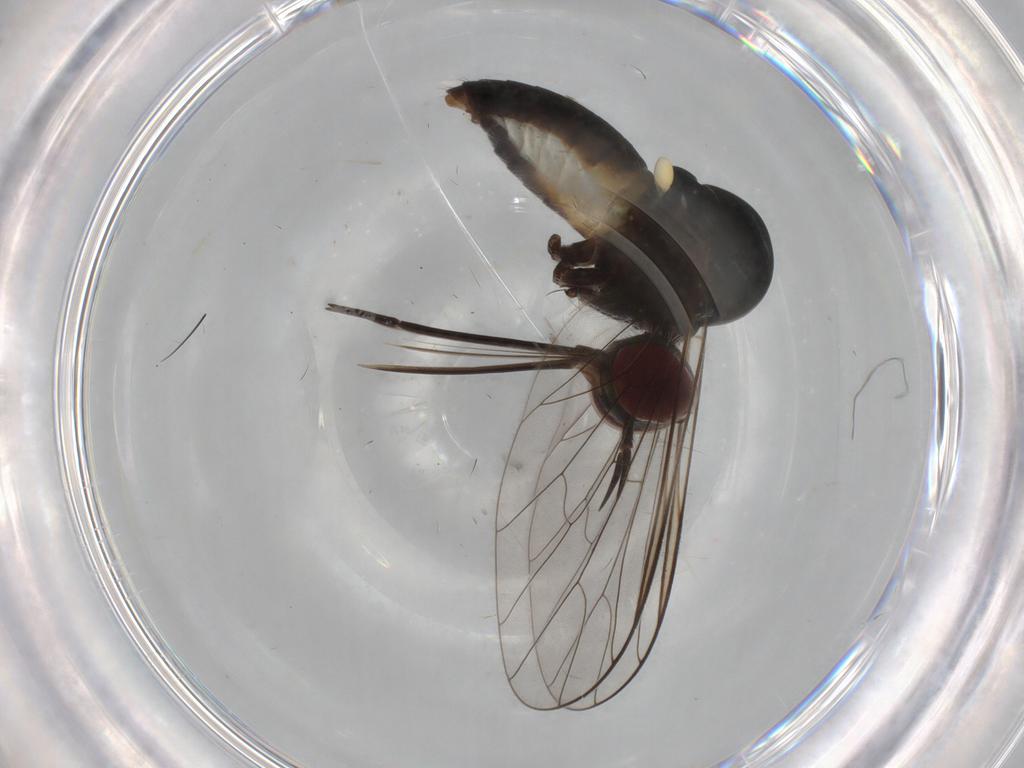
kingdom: Animalia
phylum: Arthropoda
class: Insecta
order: Diptera
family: Bombyliidae
